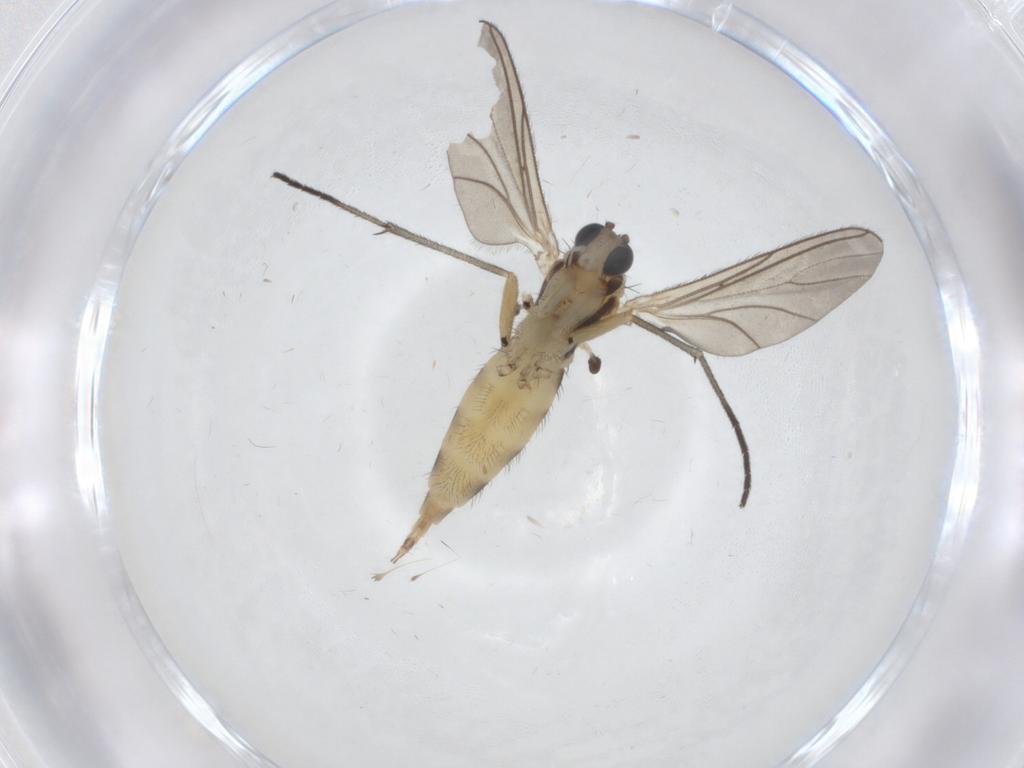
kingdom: Animalia
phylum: Arthropoda
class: Insecta
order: Diptera
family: Sciaridae
